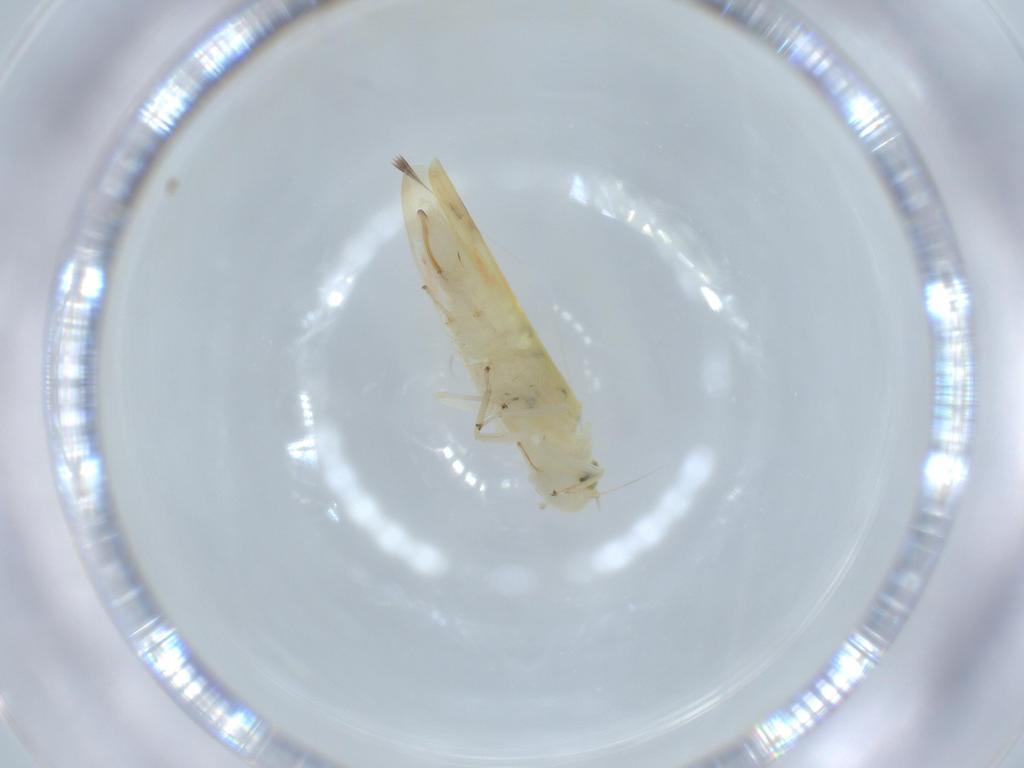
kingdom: Animalia
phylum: Arthropoda
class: Insecta
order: Hemiptera
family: Cicadellidae
